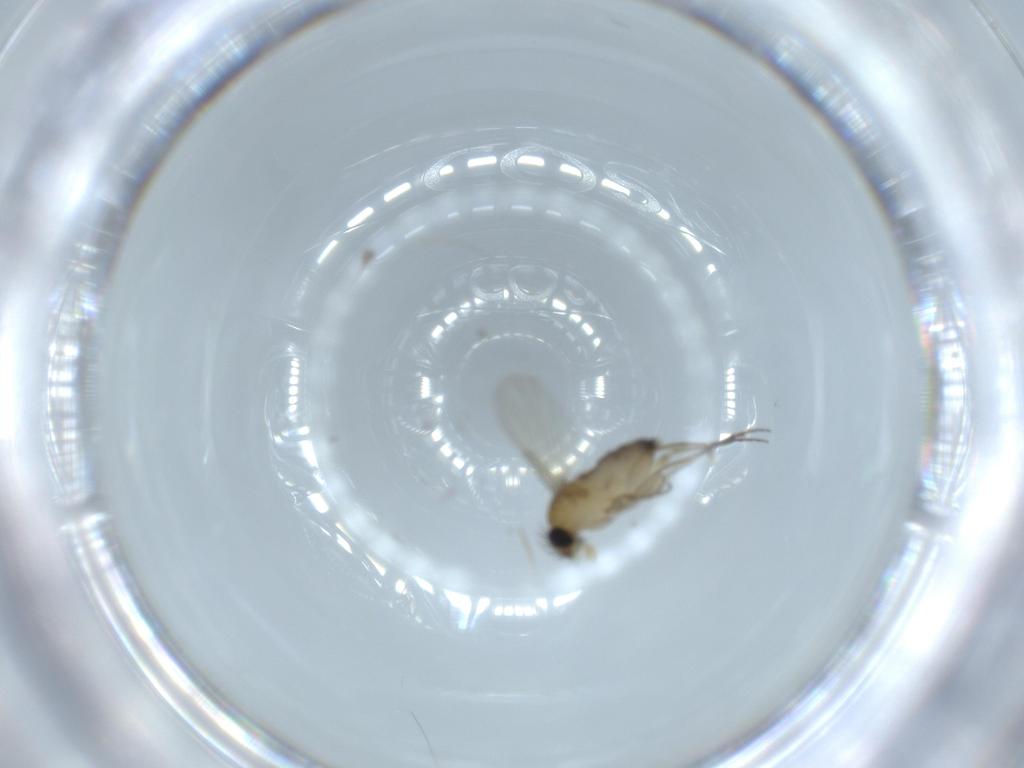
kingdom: Animalia
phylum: Arthropoda
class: Insecta
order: Diptera
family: Phoridae
